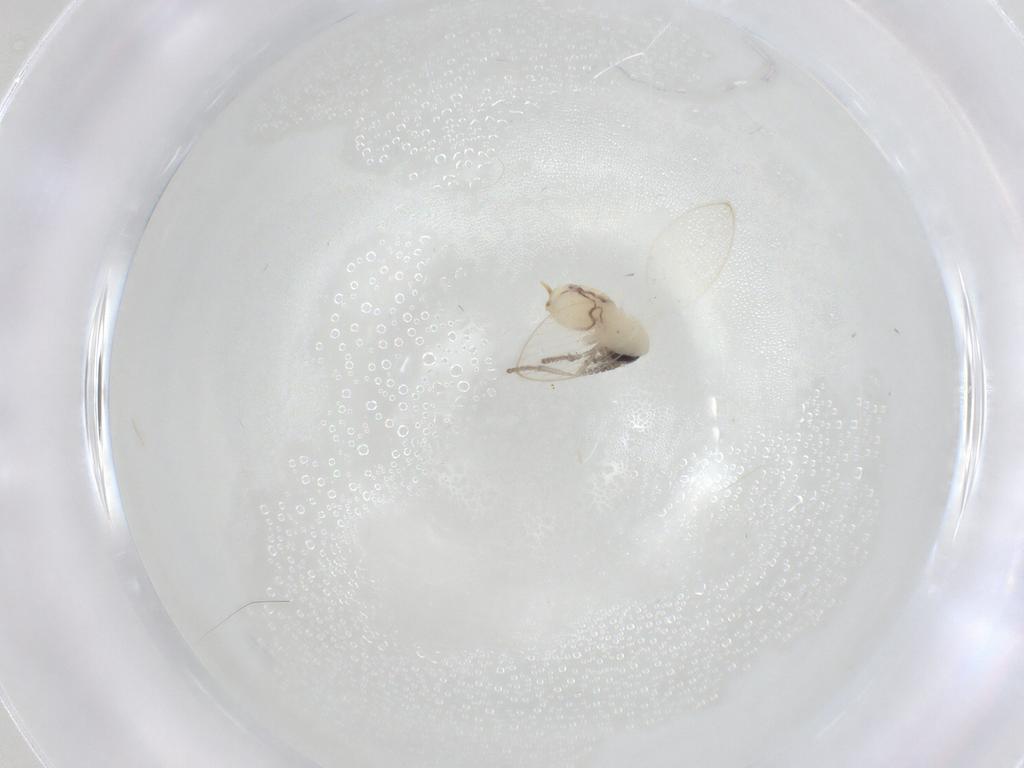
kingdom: Animalia
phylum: Arthropoda
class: Insecta
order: Diptera
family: Psychodidae
